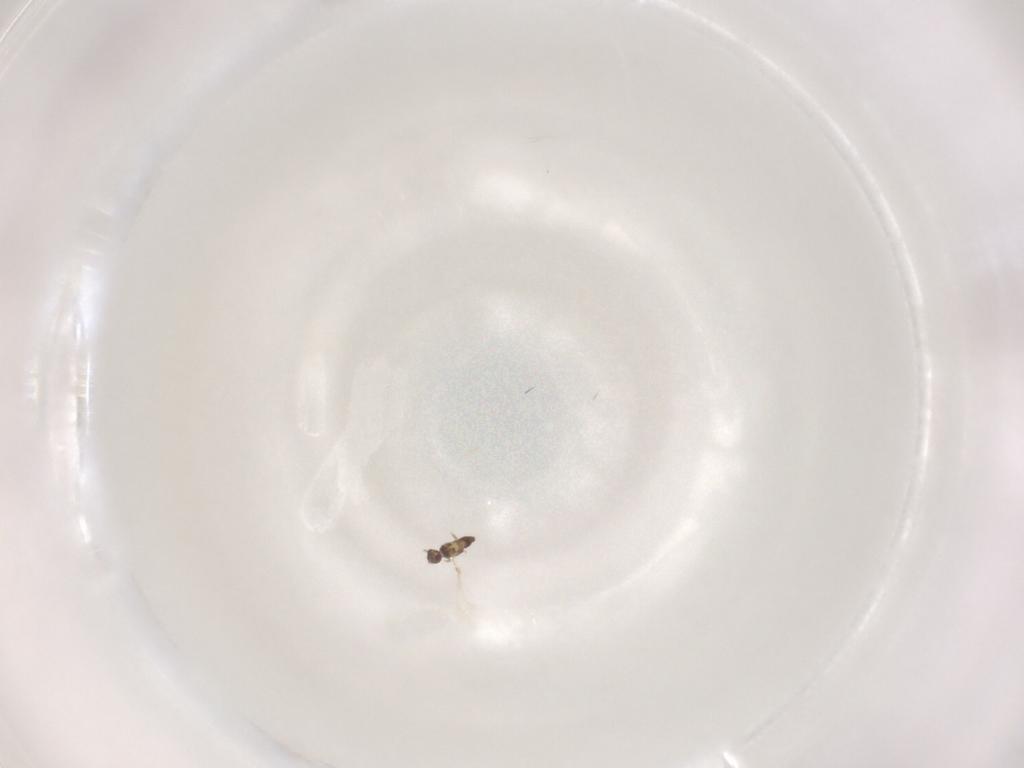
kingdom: Animalia
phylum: Arthropoda
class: Insecta
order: Hymenoptera
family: Mymaridae
